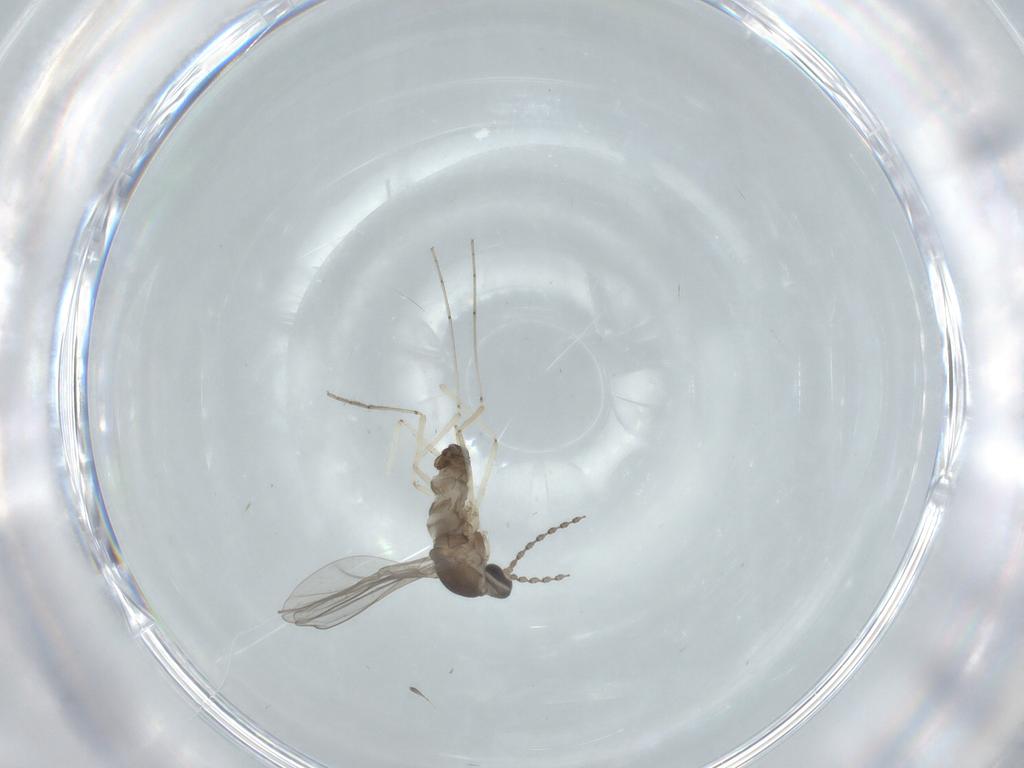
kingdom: Animalia
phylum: Arthropoda
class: Insecta
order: Diptera
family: Cecidomyiidae
